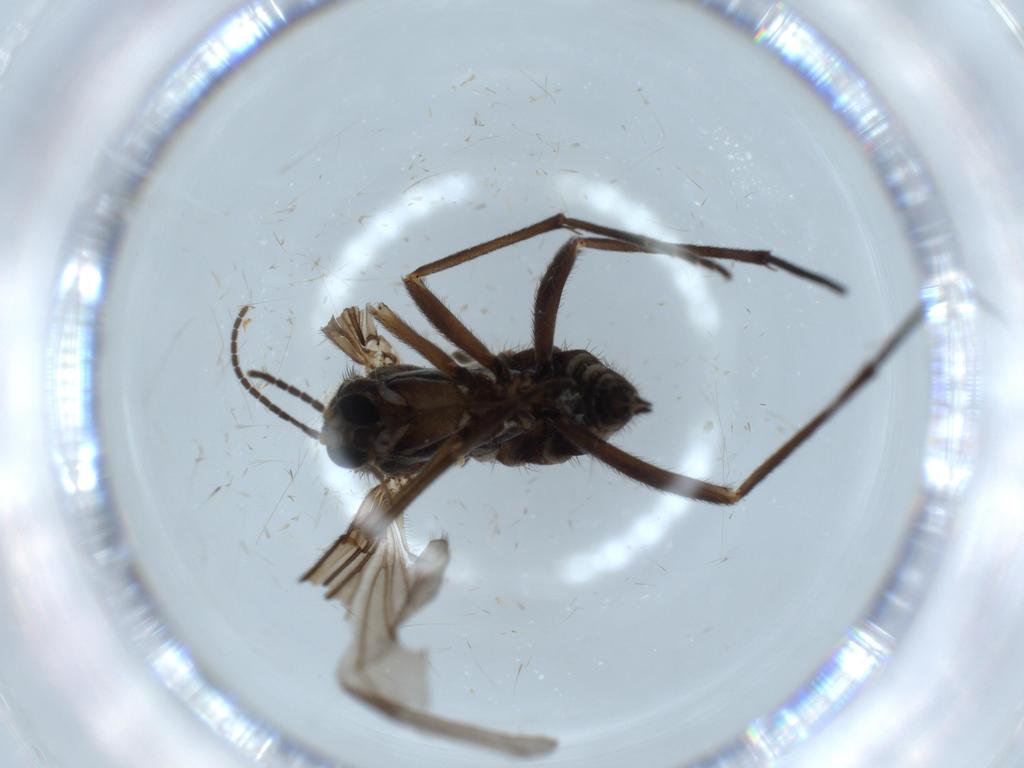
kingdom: Animalia
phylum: Arthropoda
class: Insecta
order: Diptera
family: Sciaridae
